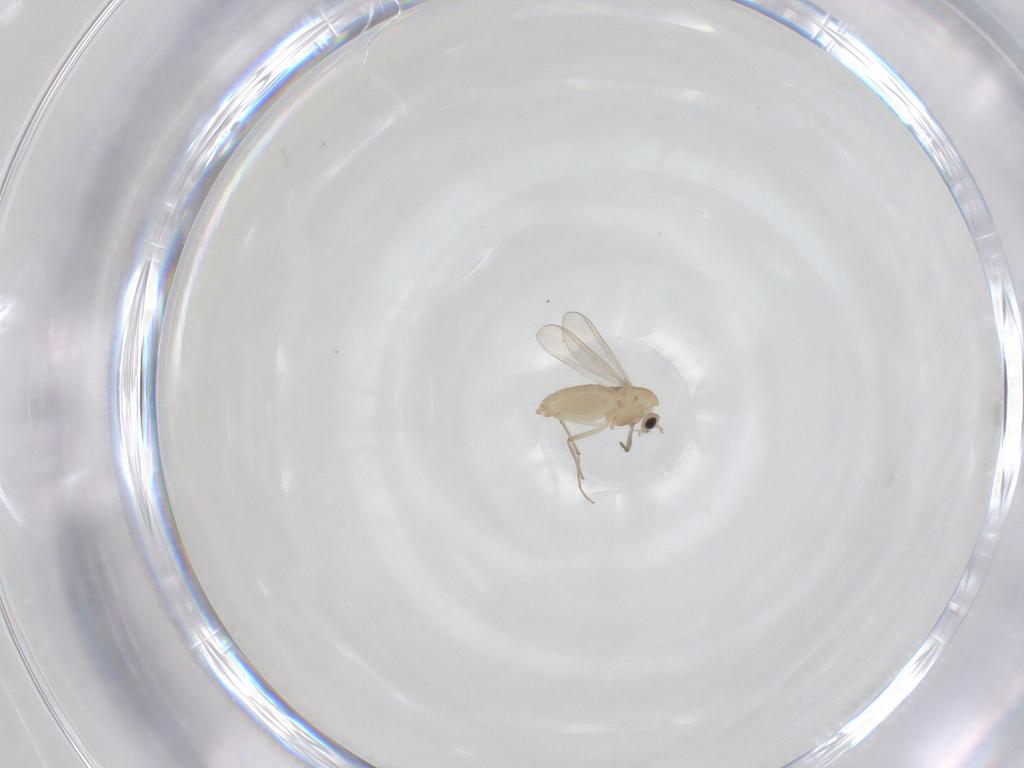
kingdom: Animalia
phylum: Arthropoda
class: Insecta
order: Diptera
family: Chironomidae
